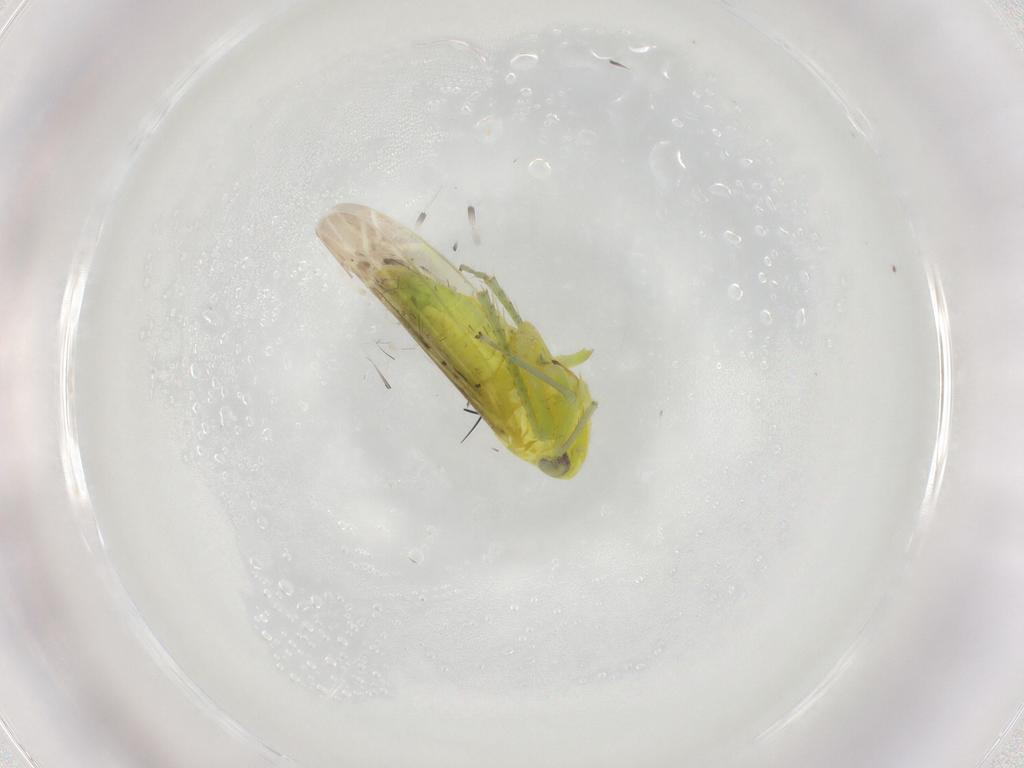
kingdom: Animalia
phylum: Arthropoda
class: Insecta
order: Hemiptera
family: Cicadellidae
